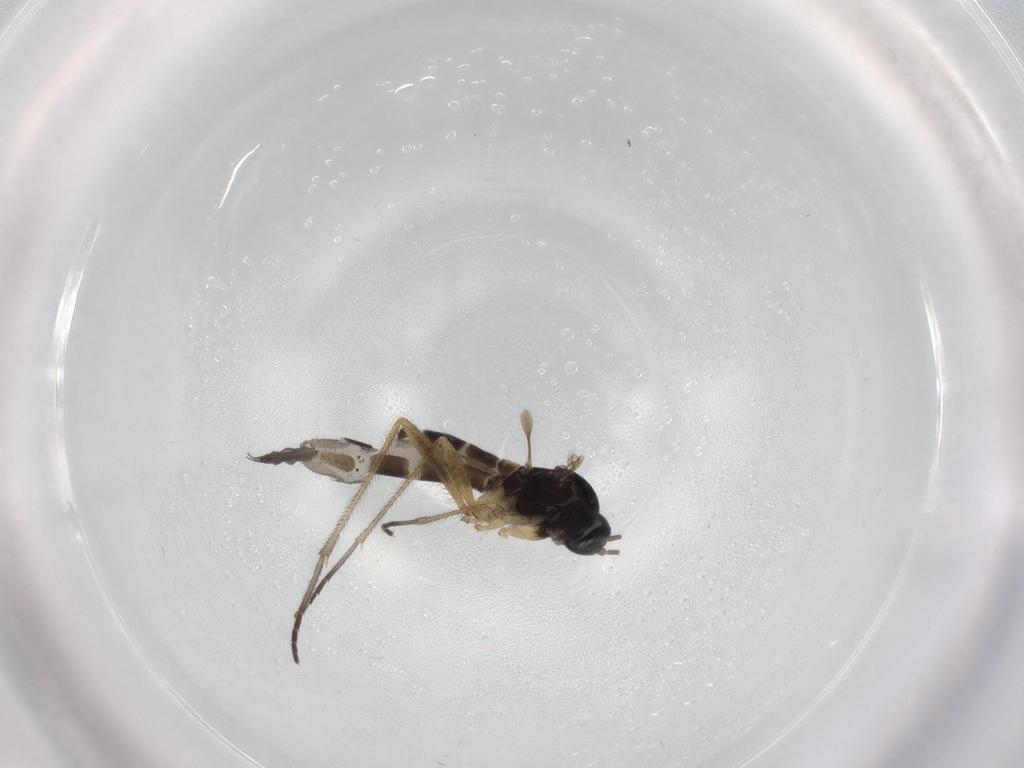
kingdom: Animalia
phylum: Arthropoda
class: Insecta
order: Diptera
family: Sciaridae
